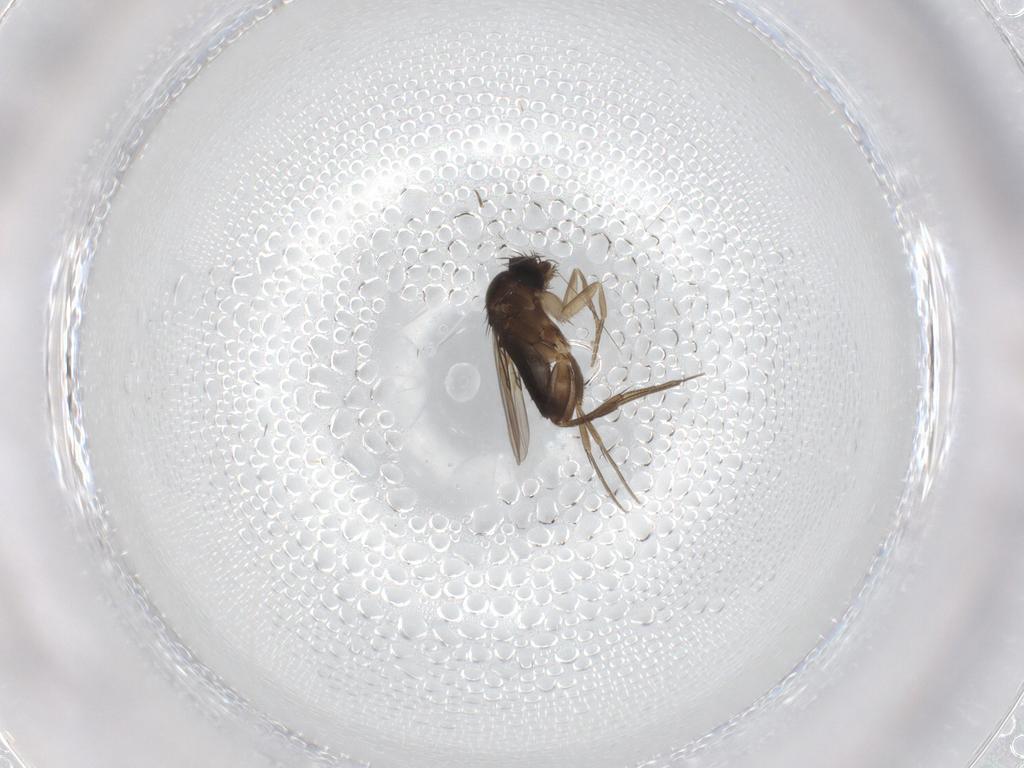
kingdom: Animalia
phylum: Arthropoda
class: Insecta
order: Diptera
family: Phoridae
